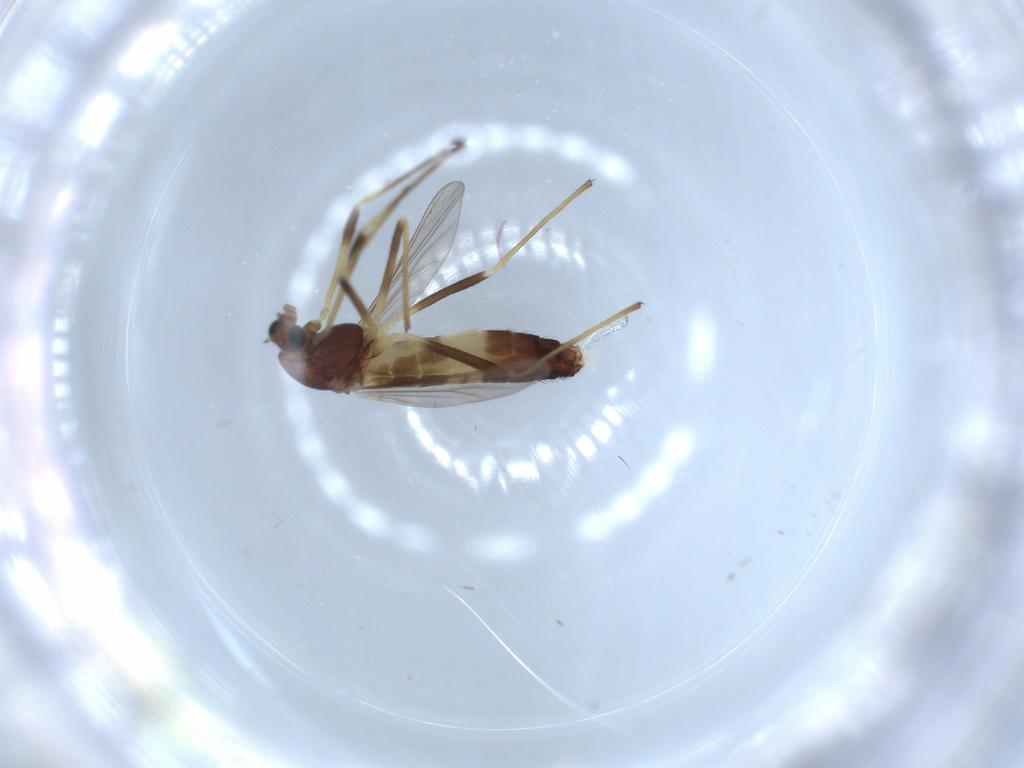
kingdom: Animalia
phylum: Arthropoda
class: Insecta
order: Diptera
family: Chironomidae
